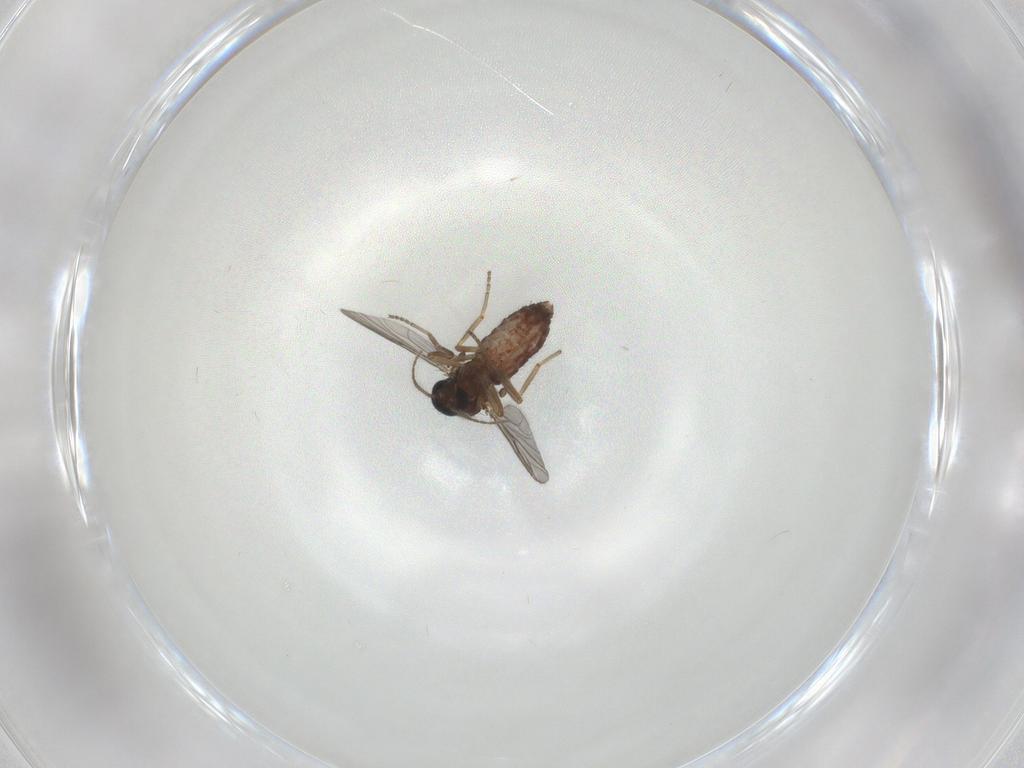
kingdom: Animalia
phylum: Arthropoda
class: Insecta
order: Diptera
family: Ceratopogonidae
